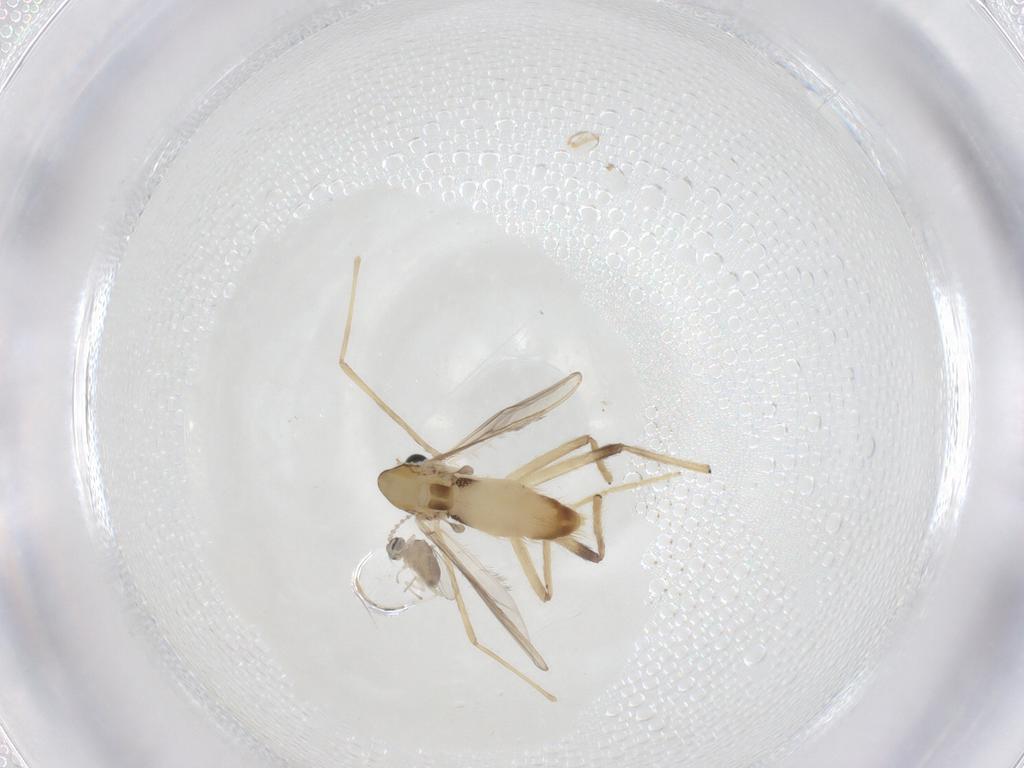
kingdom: Animalia
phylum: Arthropoda
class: Insecta
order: Diptera
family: Chironomidae
